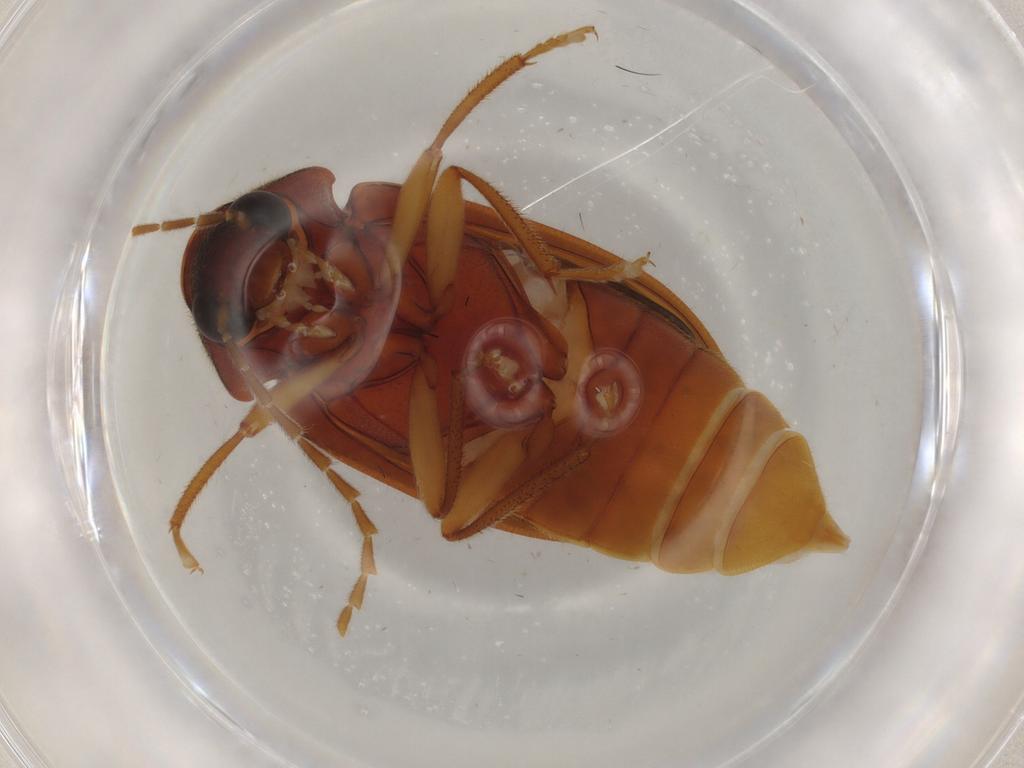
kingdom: Animalia
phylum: Arthropoda
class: Insecta
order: Coleoptera
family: Ptilodactylidae
